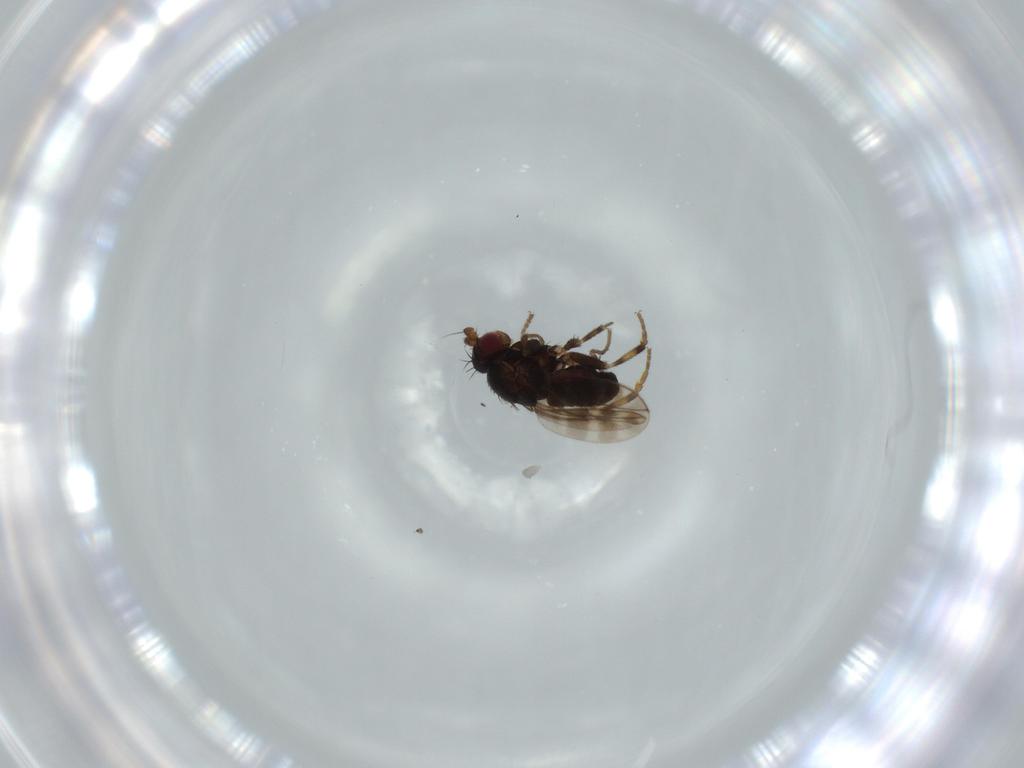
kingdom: Animalia
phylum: Arthropoda
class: Insecta
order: Diptera
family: Sphaeroceridae
